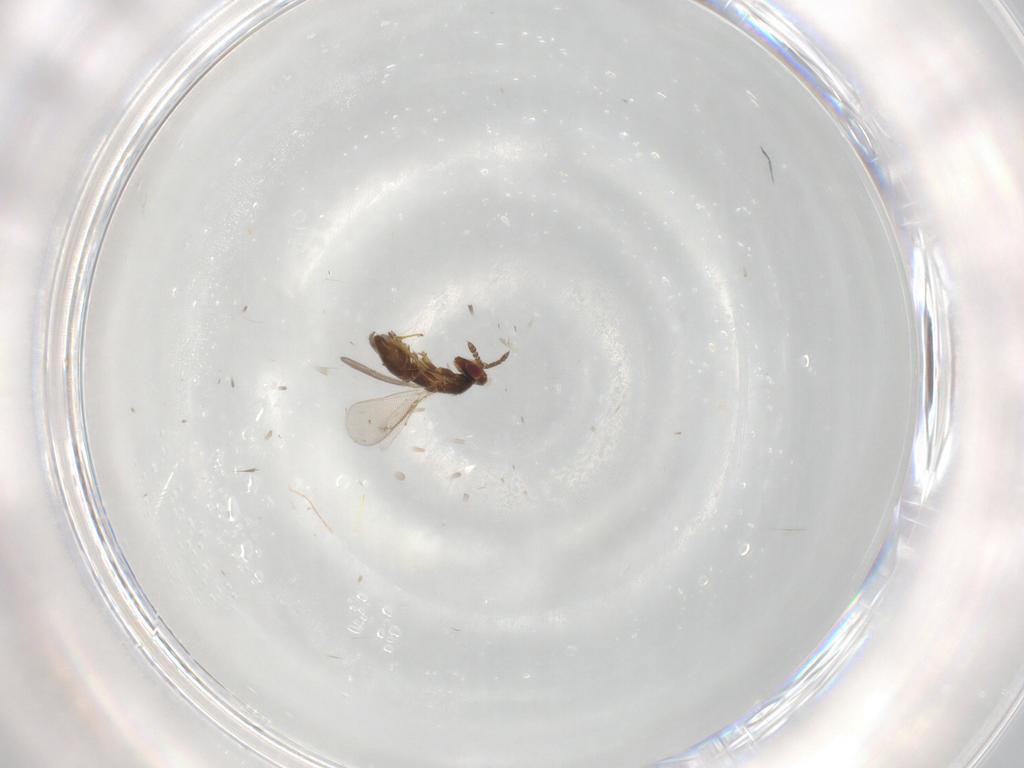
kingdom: Animalia
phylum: Arthropoda
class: Insecta
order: Hymenoptera
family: Eulophidae
